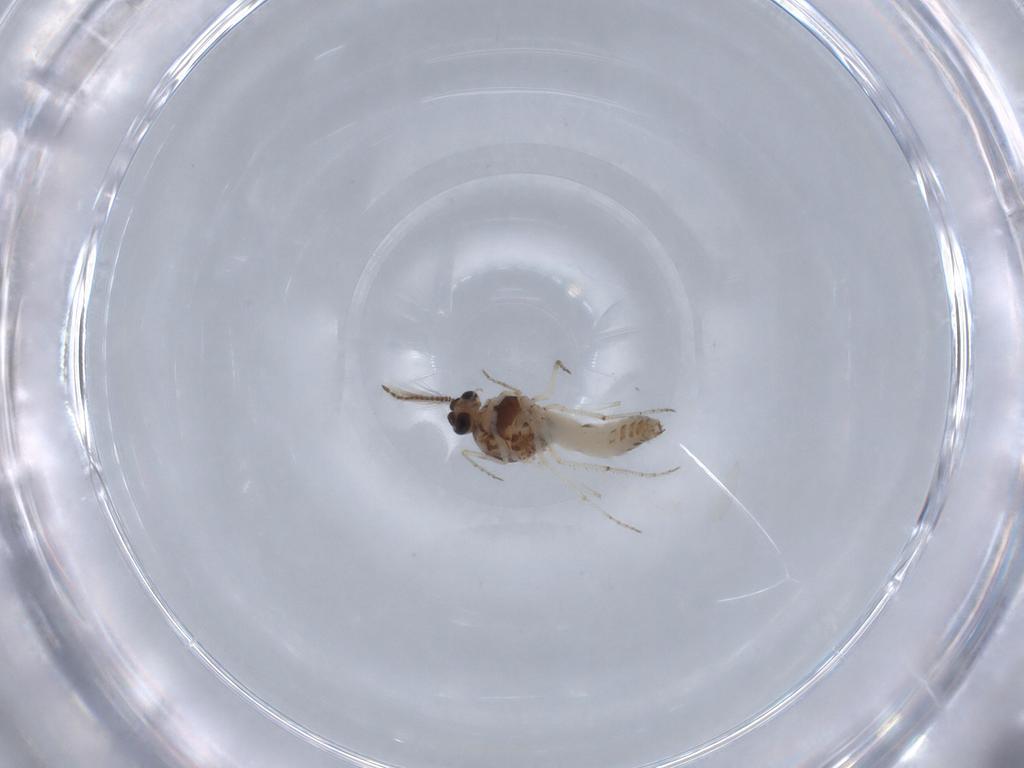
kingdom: Animalia
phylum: Arthropoda
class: Insecta
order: Diptera
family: Ceratopogonidae
